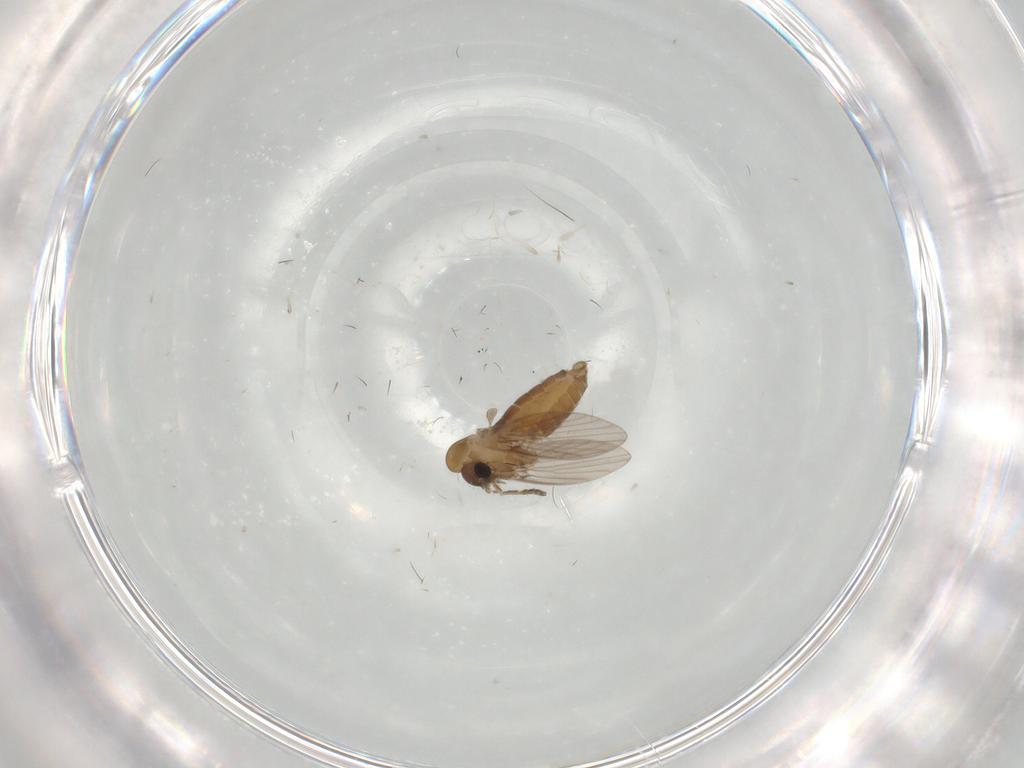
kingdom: Animalia
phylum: Arthropoda
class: Insecta
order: Diptera
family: Psychodidae
